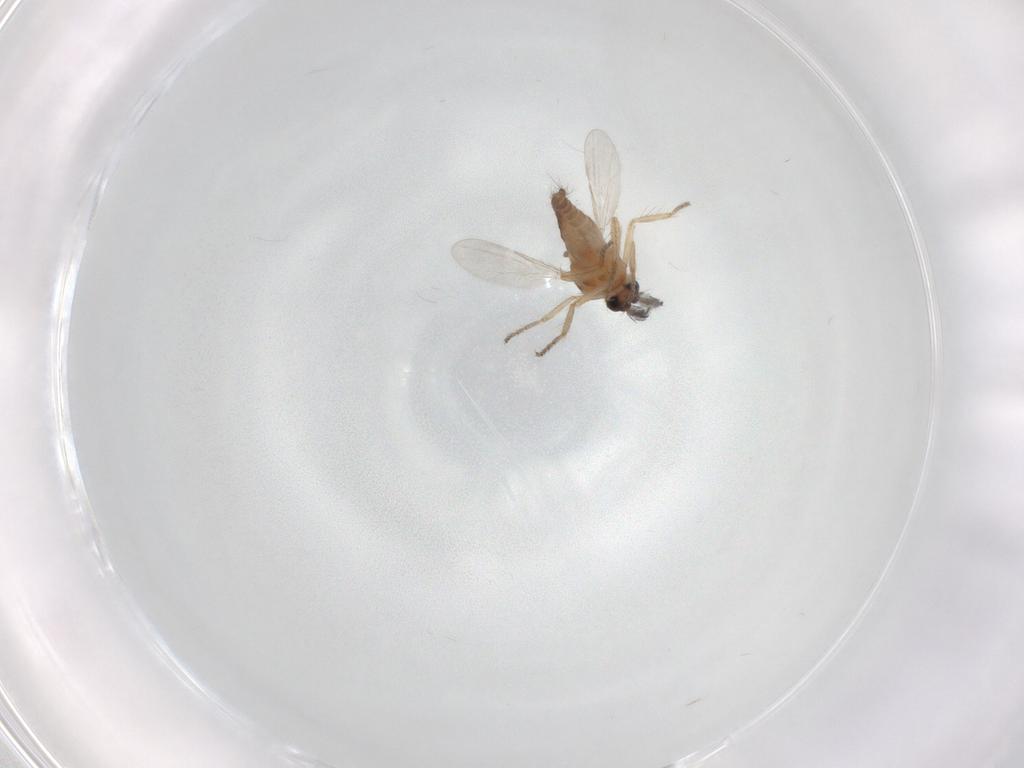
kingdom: Animalia
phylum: Arthropoda
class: Insecta
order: Diptera
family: Ceratopogonidae
